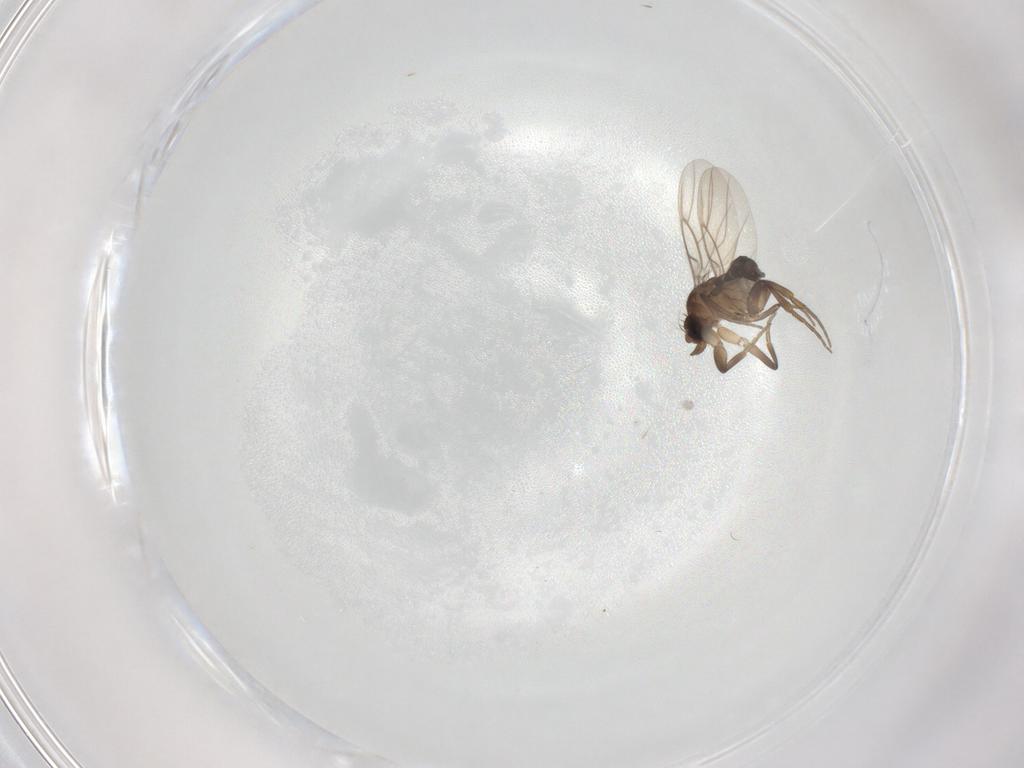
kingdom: Animalia
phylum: Arthropoda
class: Insecta
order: Diptera
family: Phoridae
